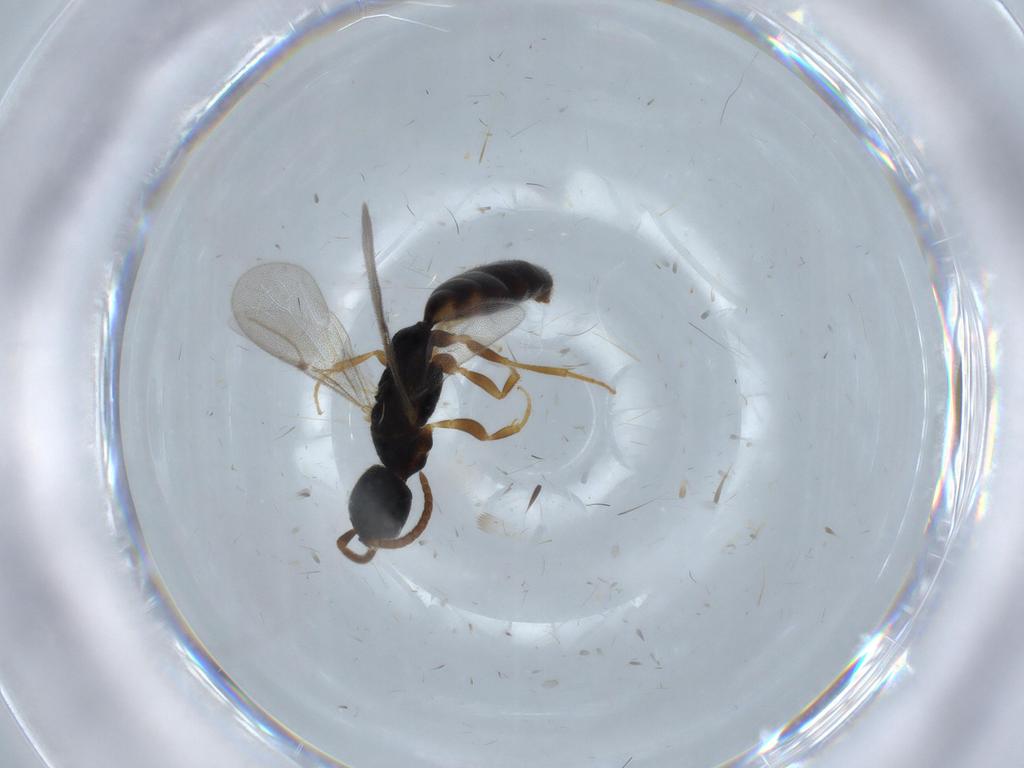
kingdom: Animalia
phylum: Arthropoda
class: Insecta
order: Hymenoptera
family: Bethylidae
